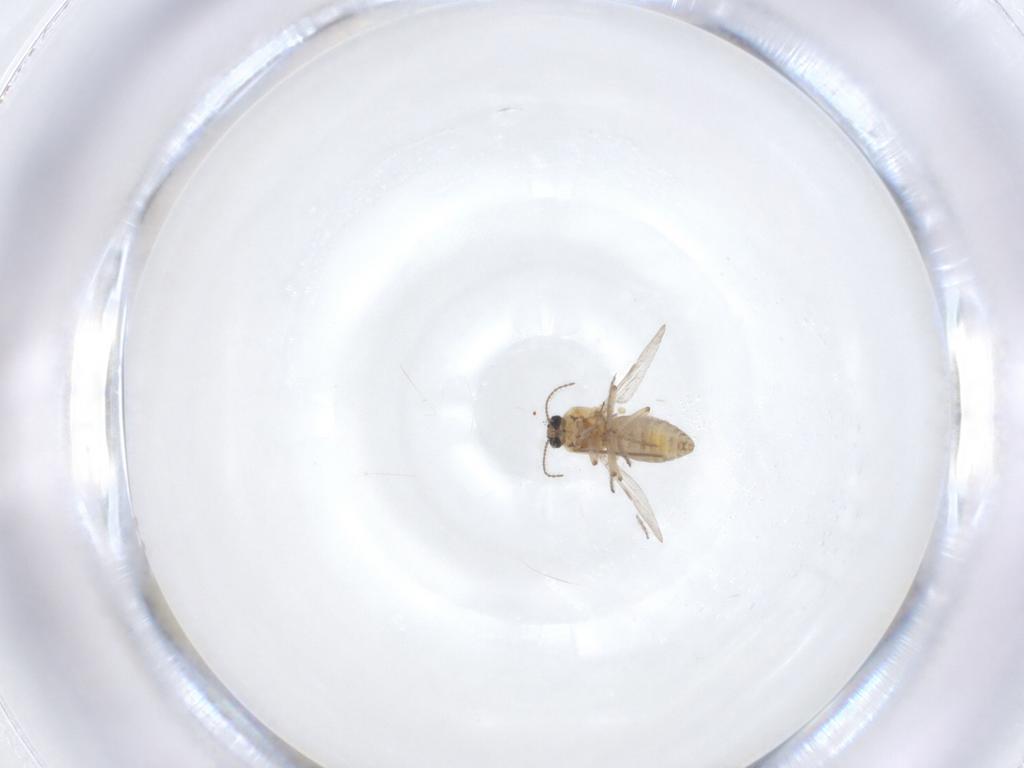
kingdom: Animalia
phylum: Arthropoda
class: Insecta
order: Diptera
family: Ceratopogonidae
